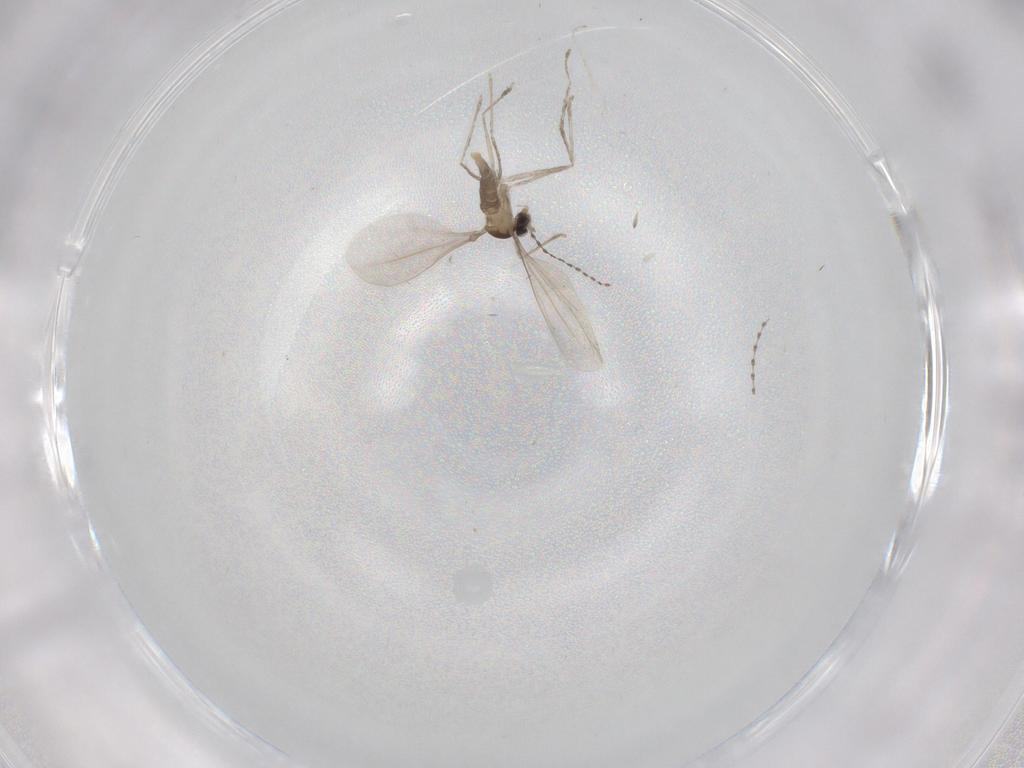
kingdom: Animalia
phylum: Arthropoda
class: Insecta
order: Diptera
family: Cecidomyiidae
